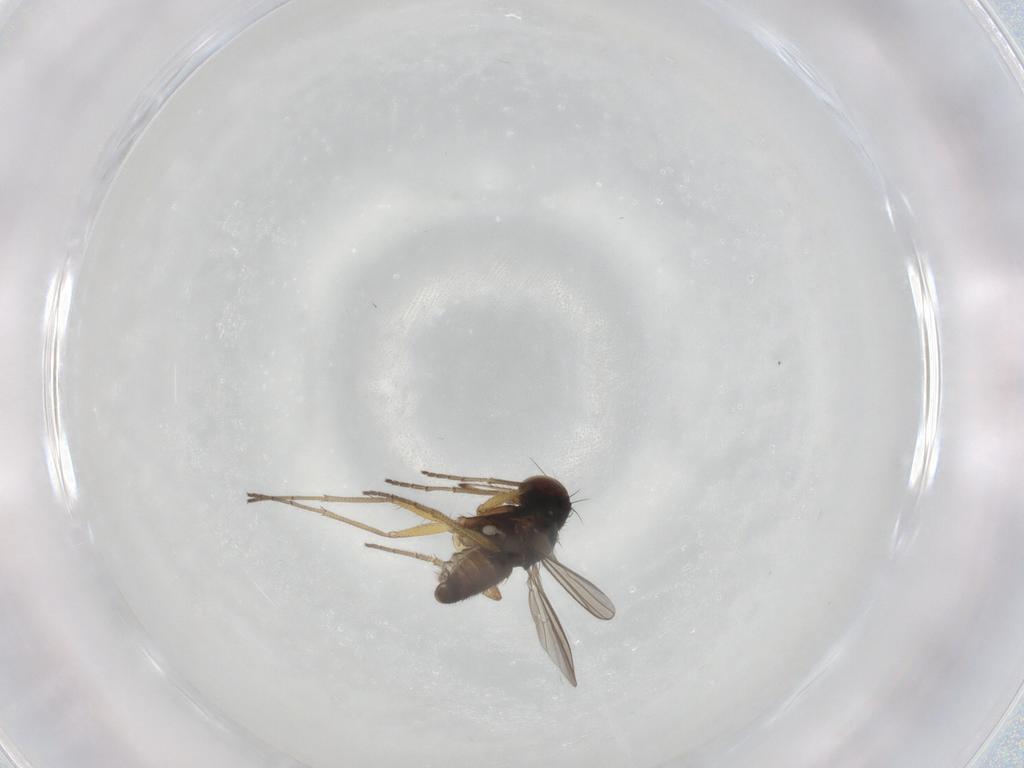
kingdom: Animalia
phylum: Arthropoda
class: Insecta
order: Diptera
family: Dolichopodidae
